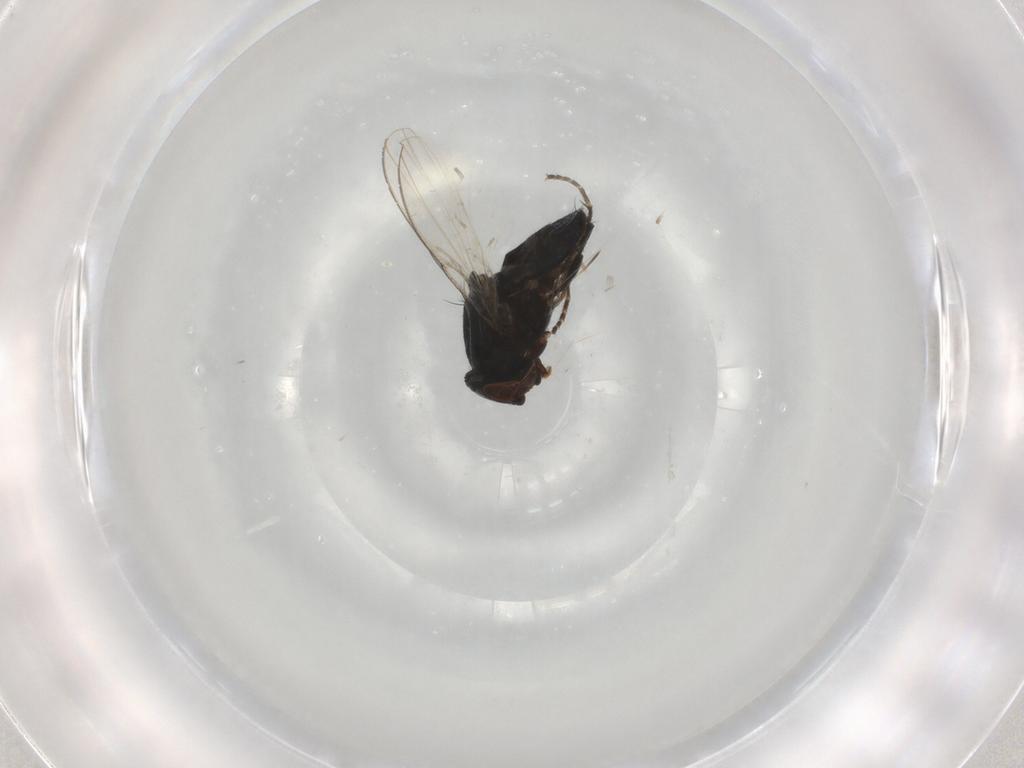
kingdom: Animalia
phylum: Arthropoda
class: Insecta
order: Diptera
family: Milichiidae
